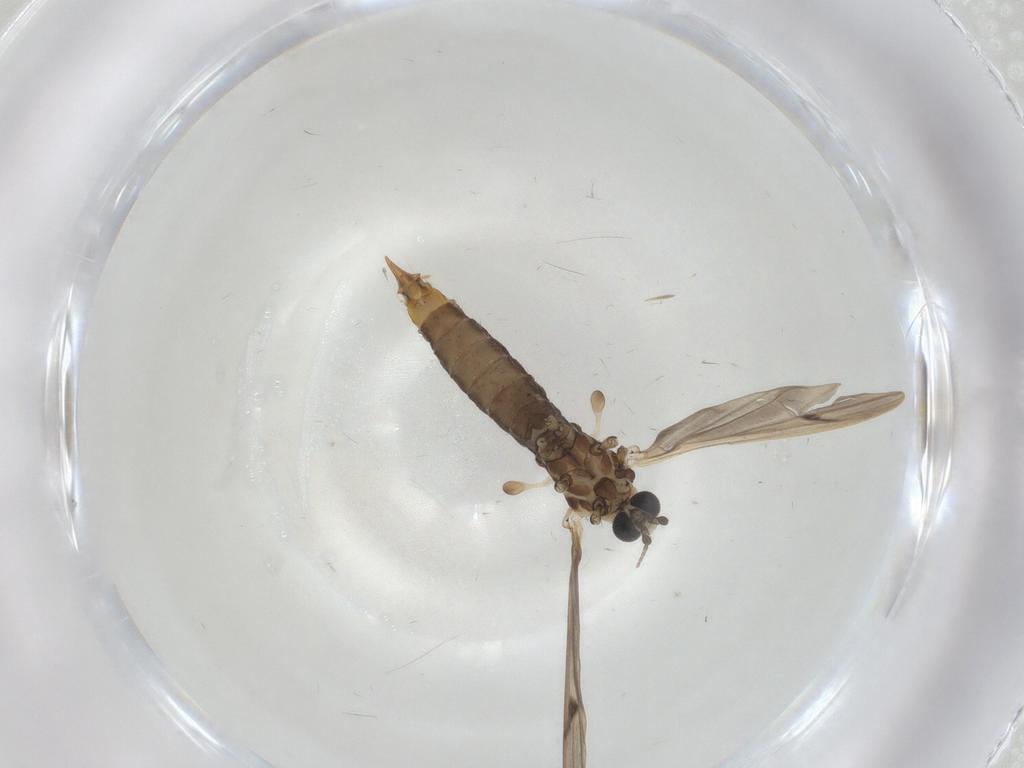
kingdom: Animalia
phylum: Arthropoda
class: Insecta
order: Diptera
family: Limoniidae
